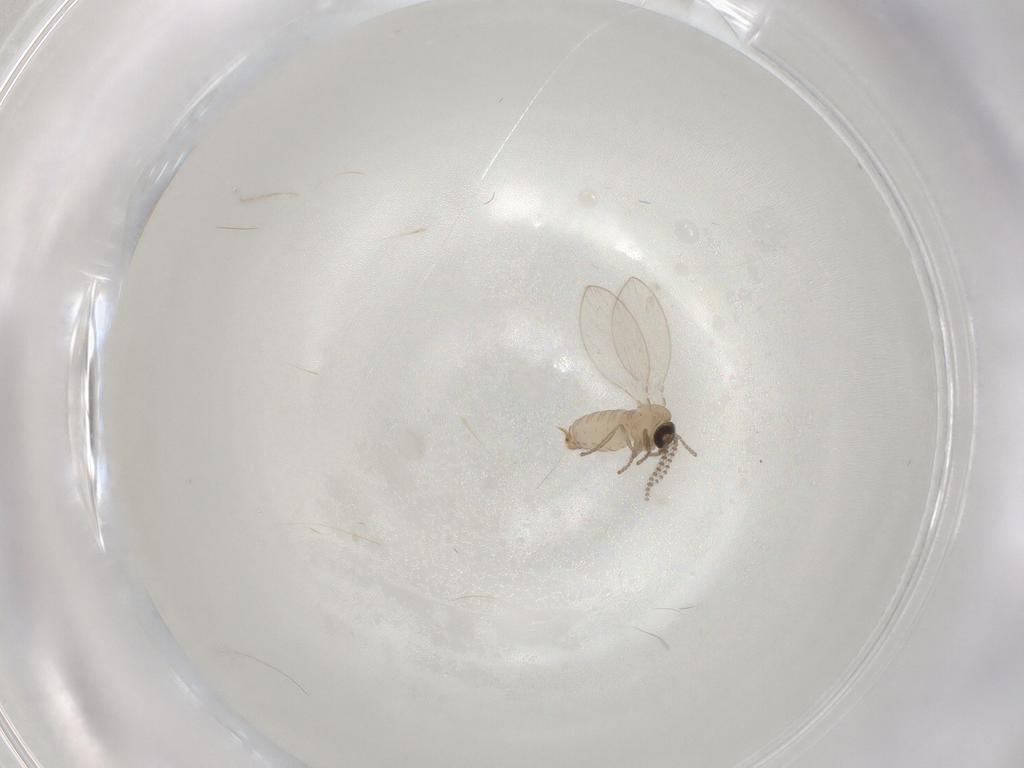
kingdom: Animalia
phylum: Arthropoda
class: Insecta
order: Diptera
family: Psychodidae
